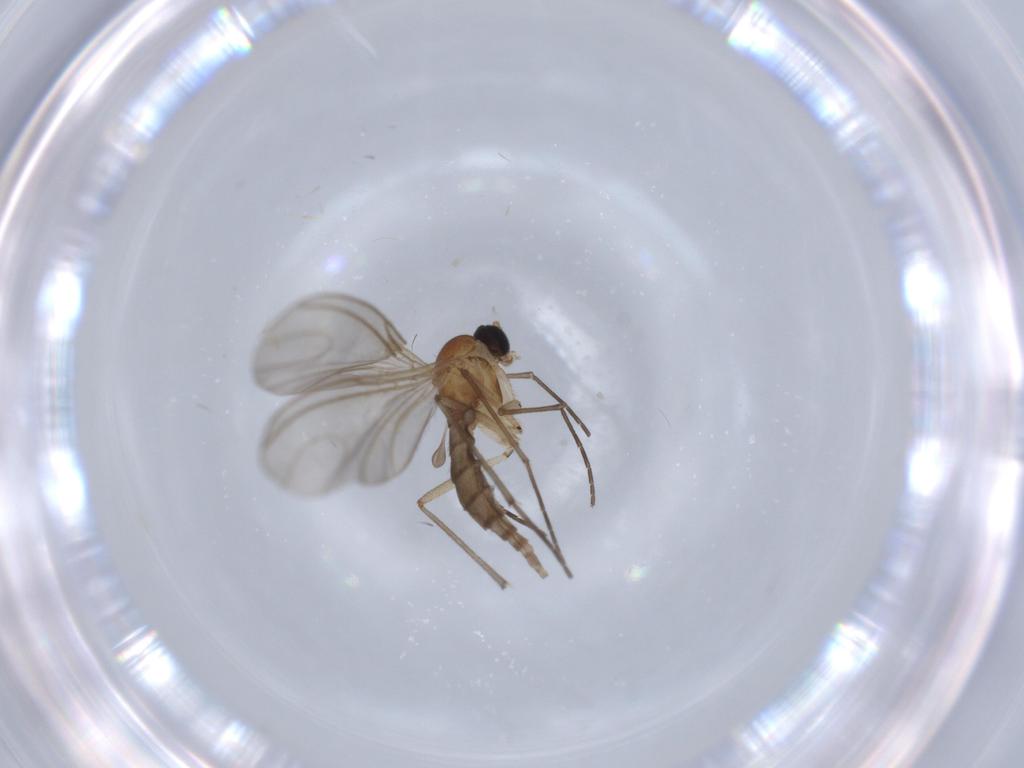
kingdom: Animalia
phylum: Arthropoda
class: Insecta
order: Diptera
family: Sciaridae
